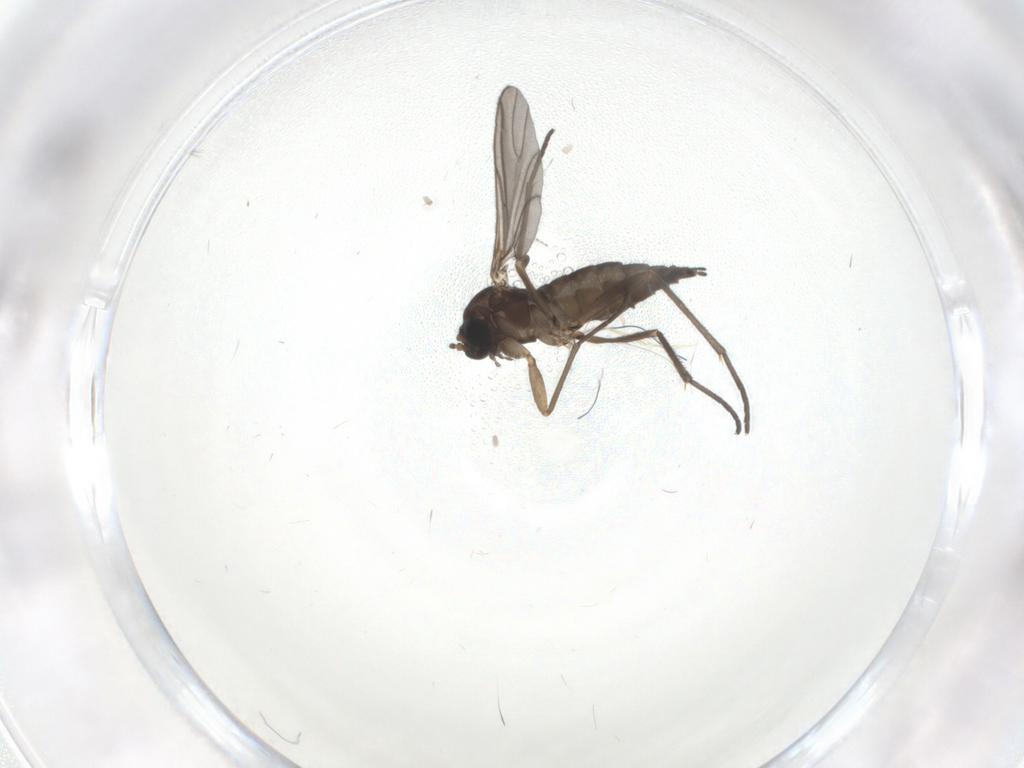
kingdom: Animalia
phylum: Arthropoda
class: Insecta
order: Diptera
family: Sciaridae
